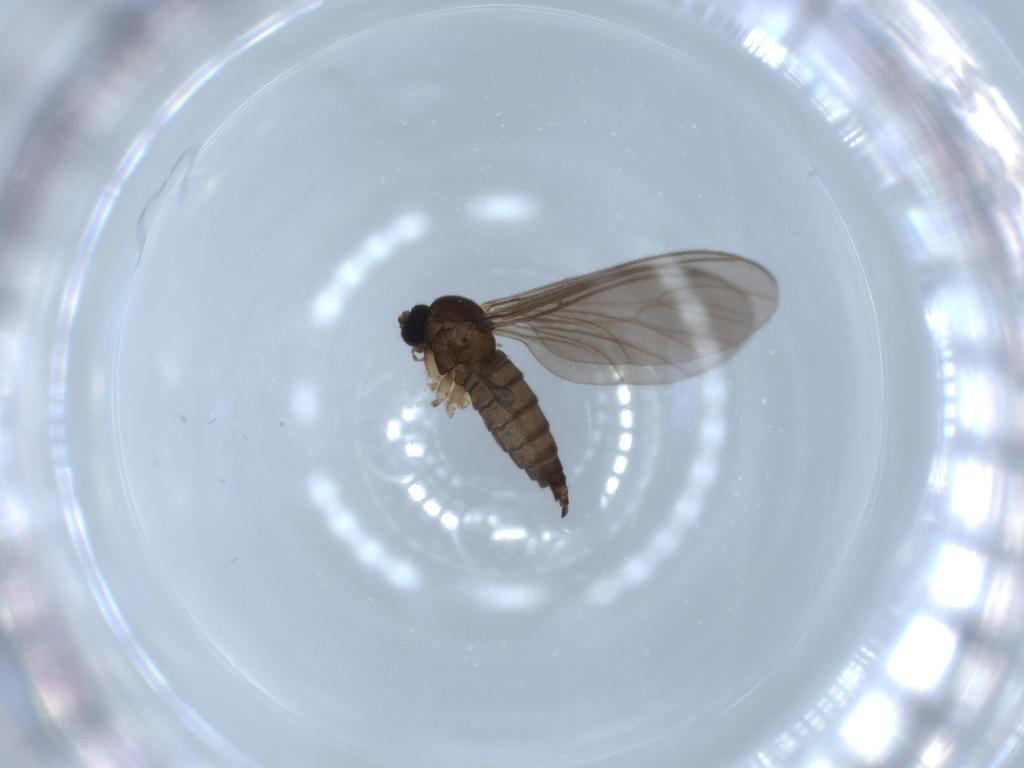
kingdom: Animalia
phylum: Arthropoda
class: Insecta
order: Diptera
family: Sciaridae
